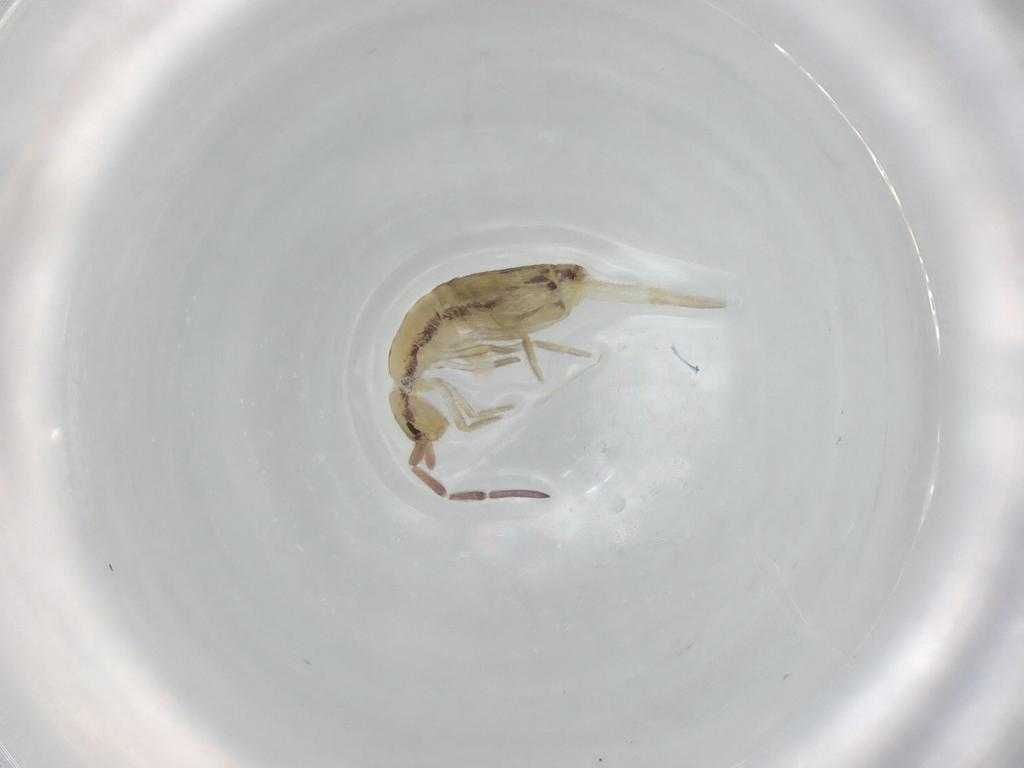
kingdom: Animalia
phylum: Arthropoda
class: Collembola
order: Entomobryomorpha
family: Entomobryidae
